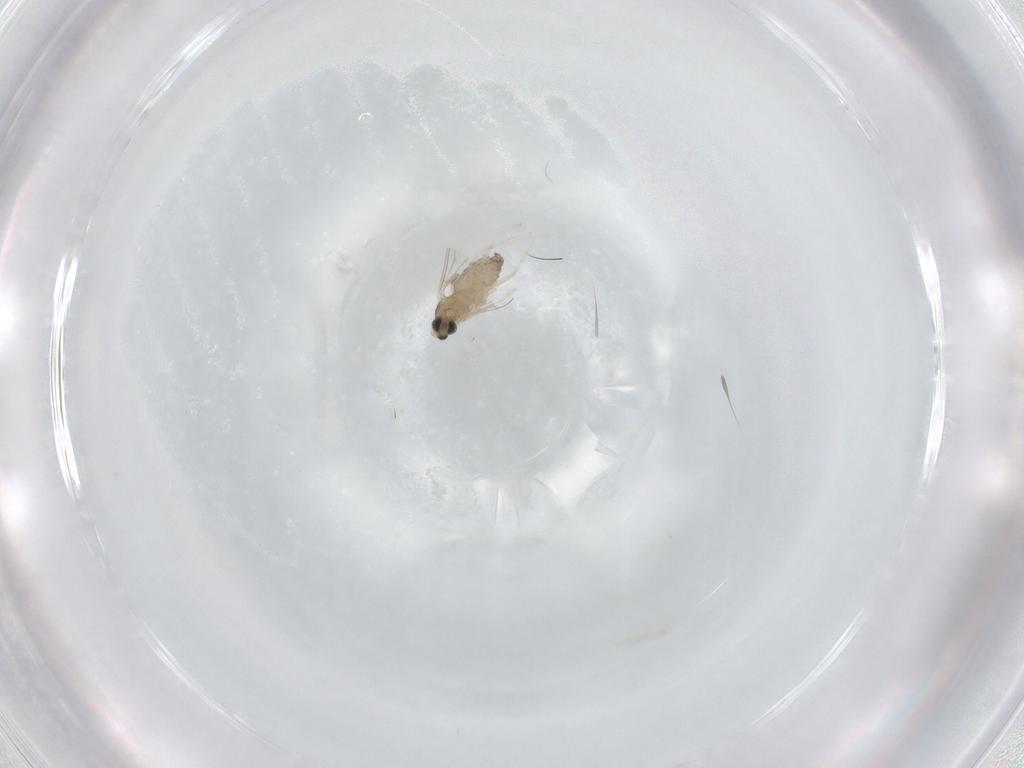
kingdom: Animalia
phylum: Arthropoda
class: Insecta
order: Diptera
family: Cecidomyiidae
